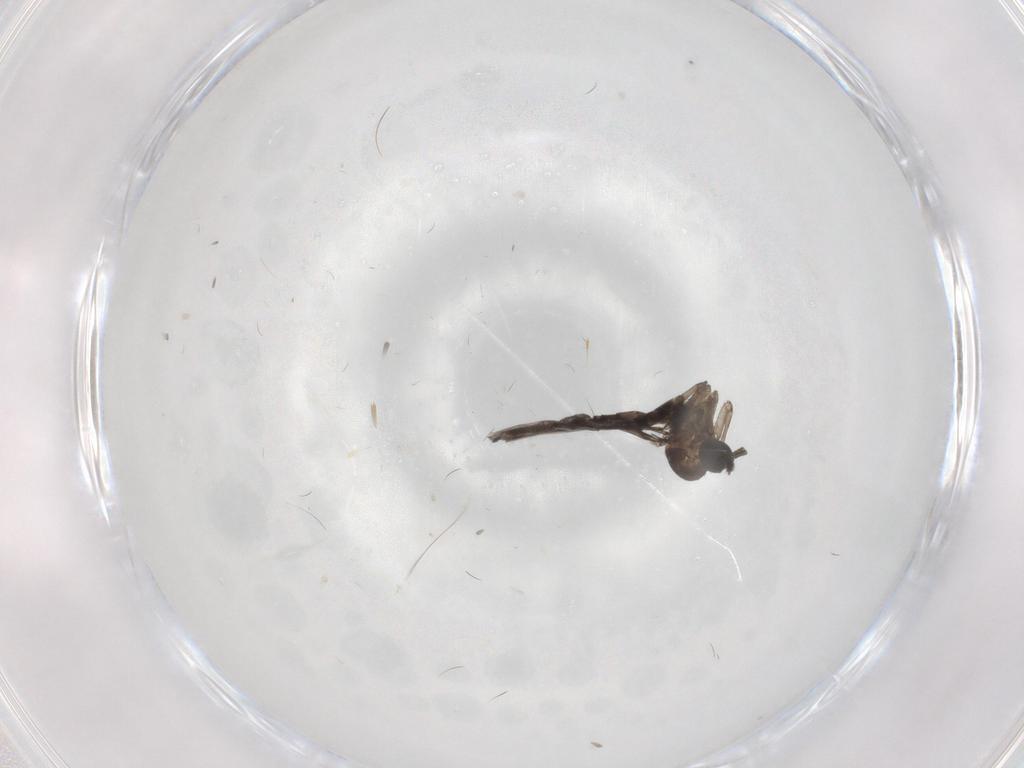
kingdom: Animalia
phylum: Arthropoda
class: Insecta
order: Diptera
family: Cecidomyiidae
